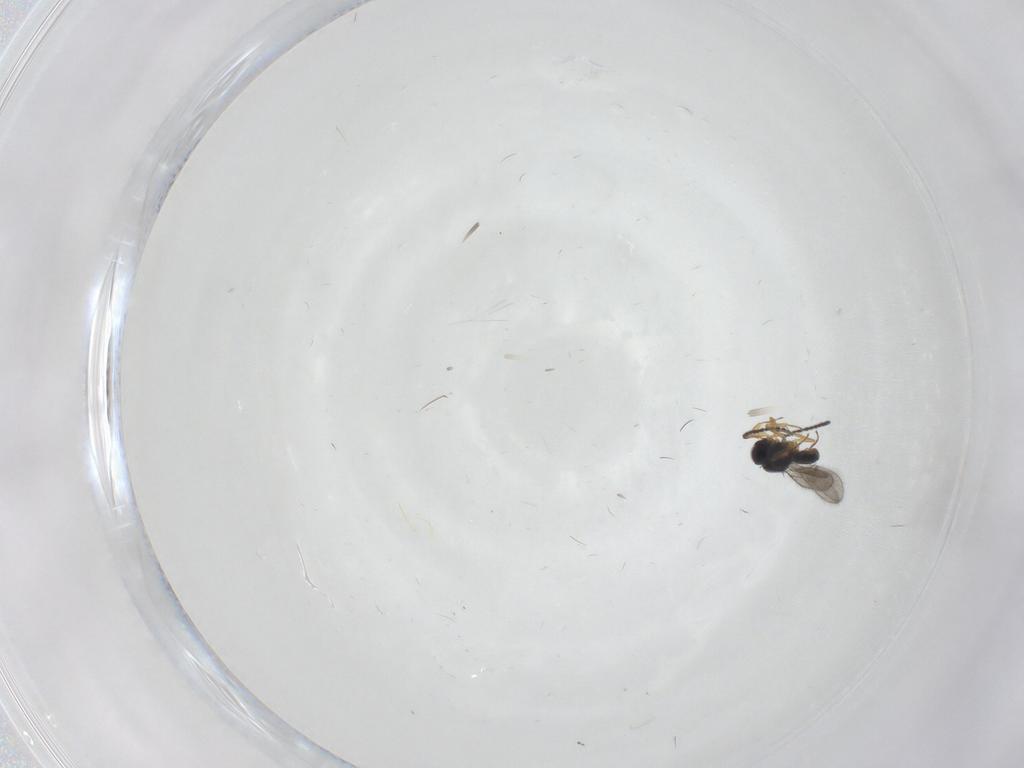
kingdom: Animalia
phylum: Arthropoda
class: Insecta
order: Hymenoptera
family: Scelionidae
